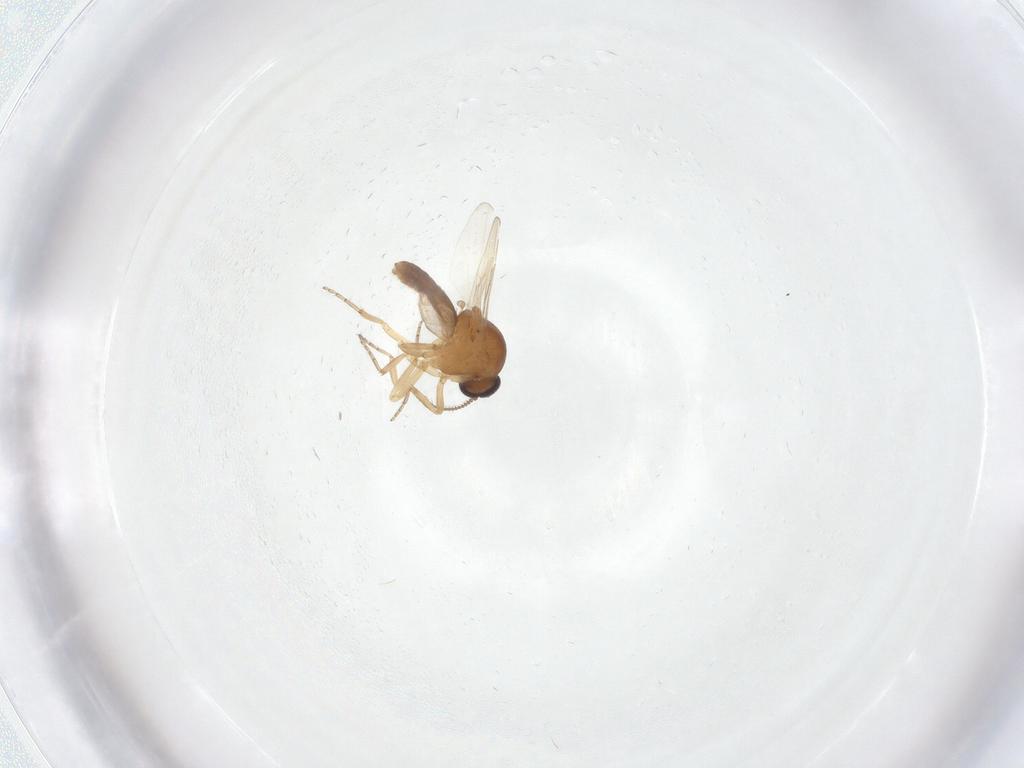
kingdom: Animalia
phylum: Arthropoda
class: Insecta
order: Diptera
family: Ceratopogonidae
